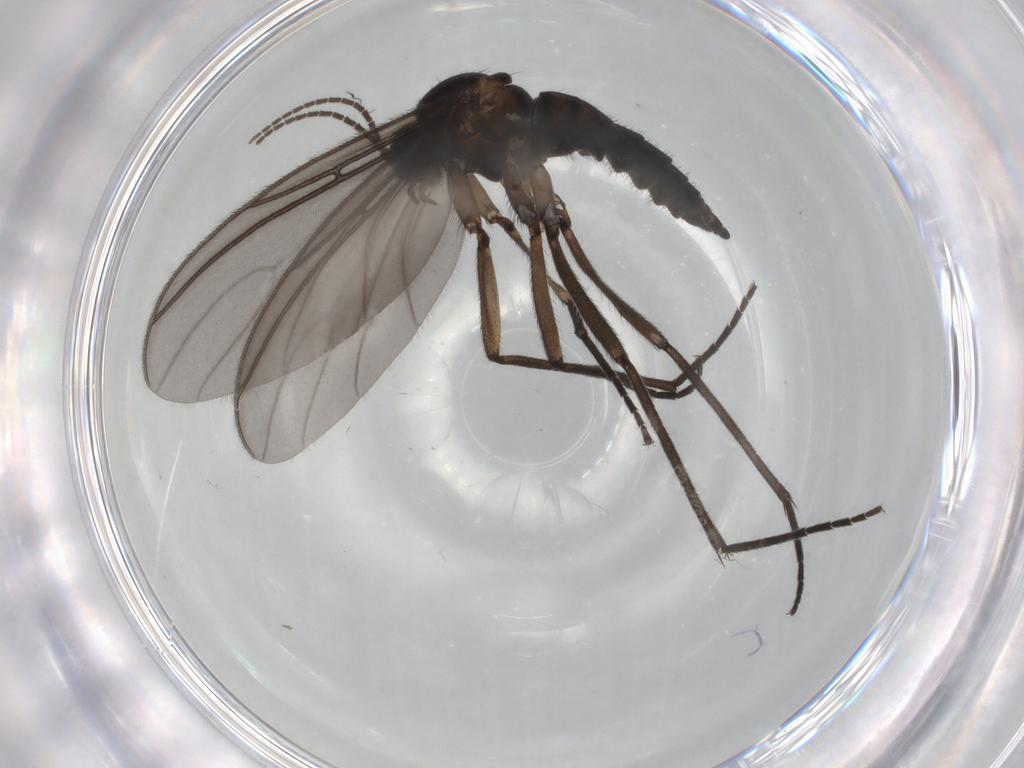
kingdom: Animalia
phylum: Arthropoda
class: Insecta
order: Diptera
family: Sciaridae
